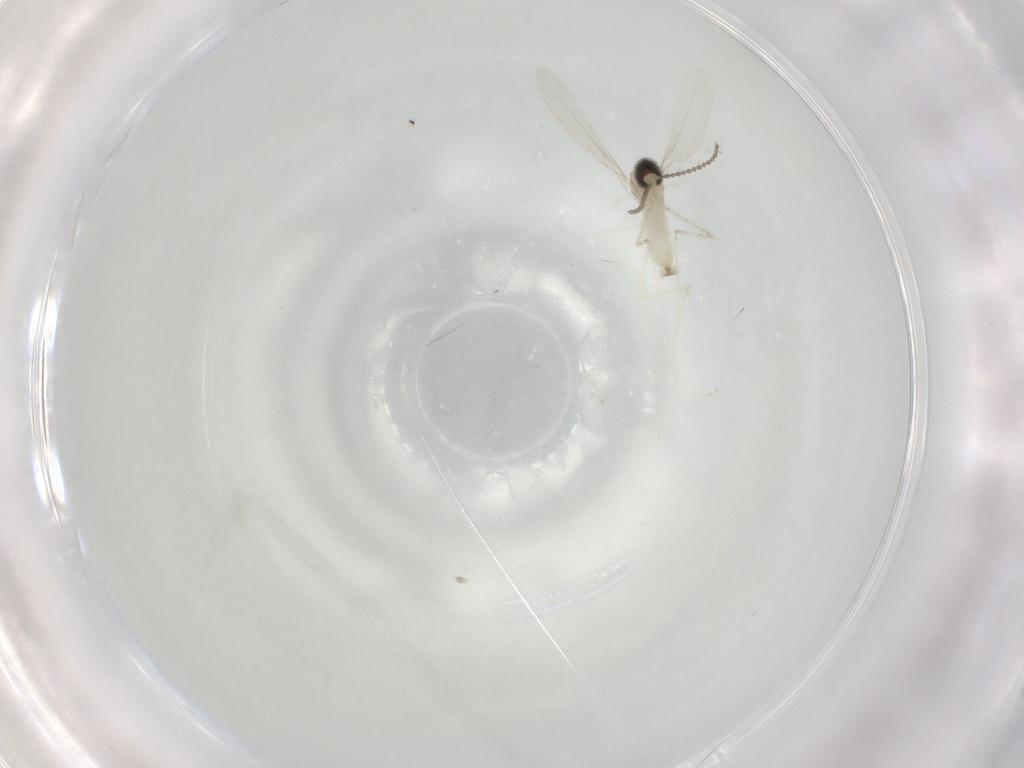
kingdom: Animalia
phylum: Arthropoda
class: Insecta
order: Diptera
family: Cecidomyiidae
